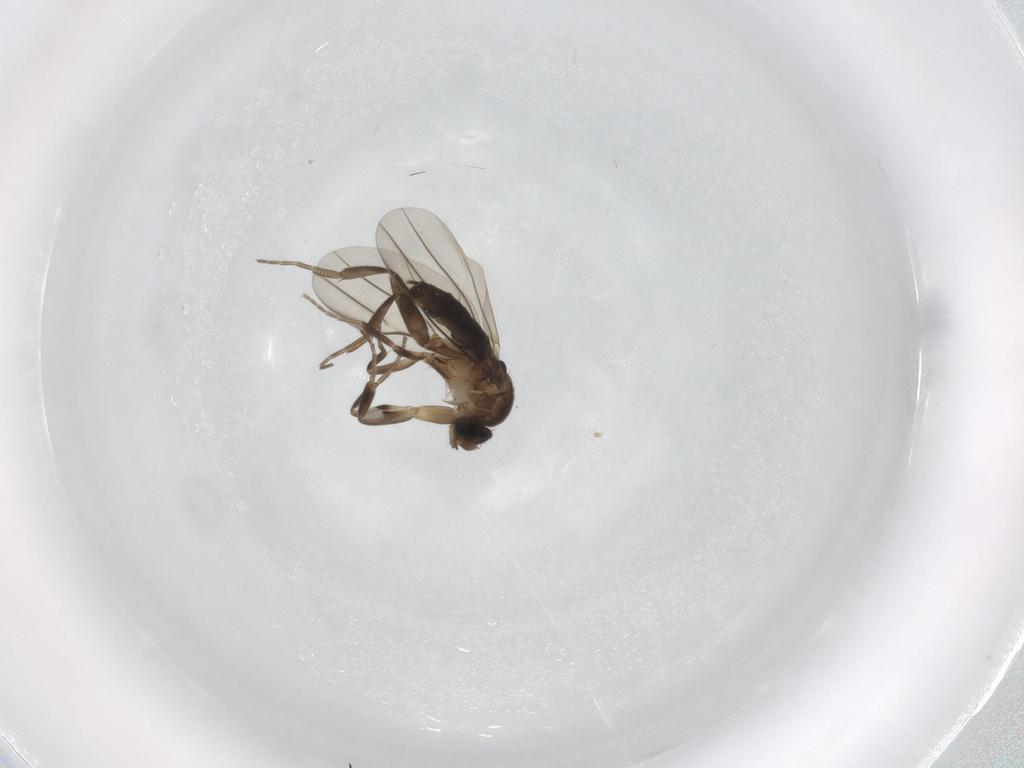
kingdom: Animalia
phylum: Arthropoda
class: Insecta
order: Diptera
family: Phoridae
